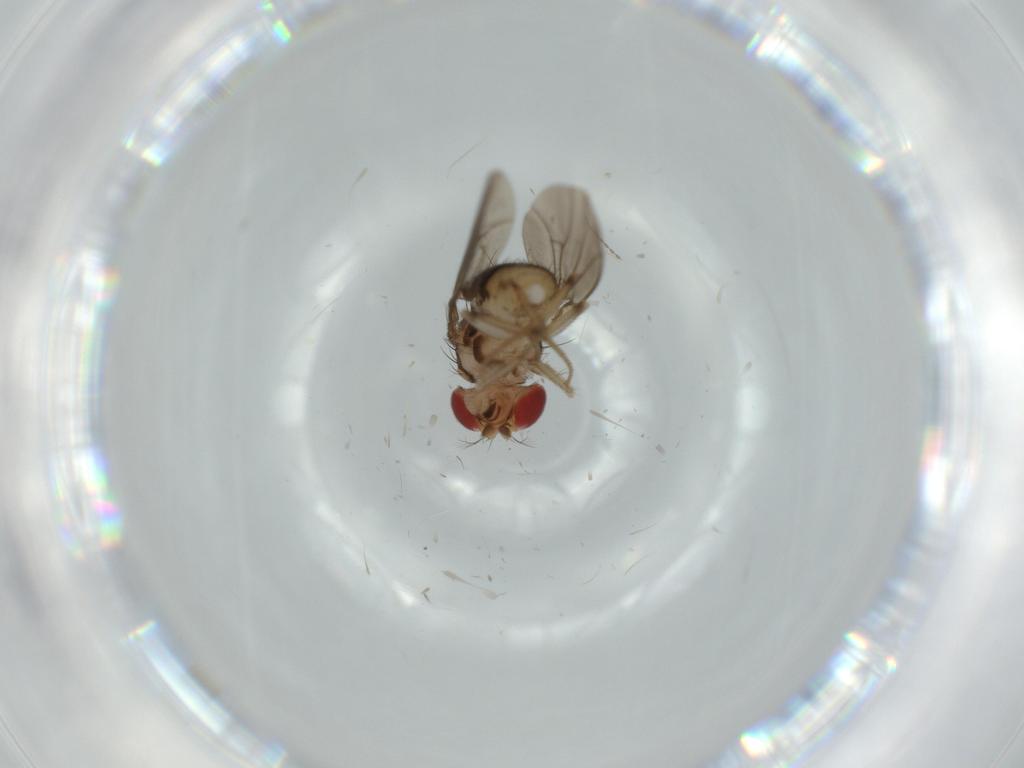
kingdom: Animalia
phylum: Arthropoda
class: Insecta
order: Diptera
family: Drosophilidae
